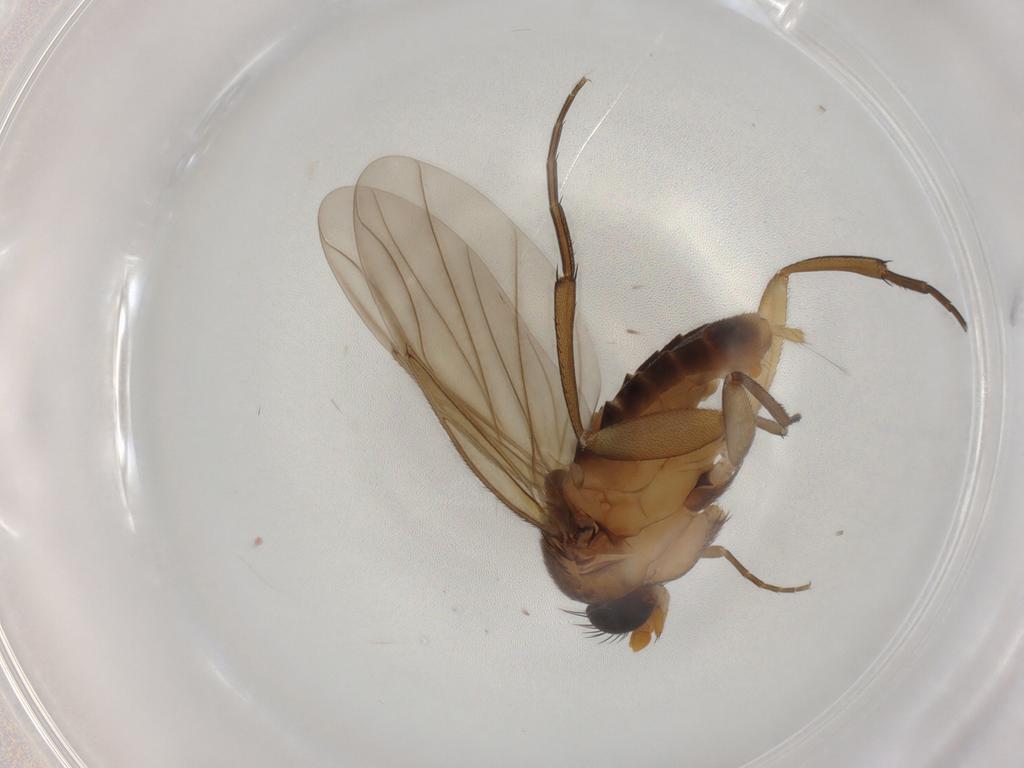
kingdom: Animalia
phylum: Arthropoda
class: Insecta
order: Diptera
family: Phoridae
